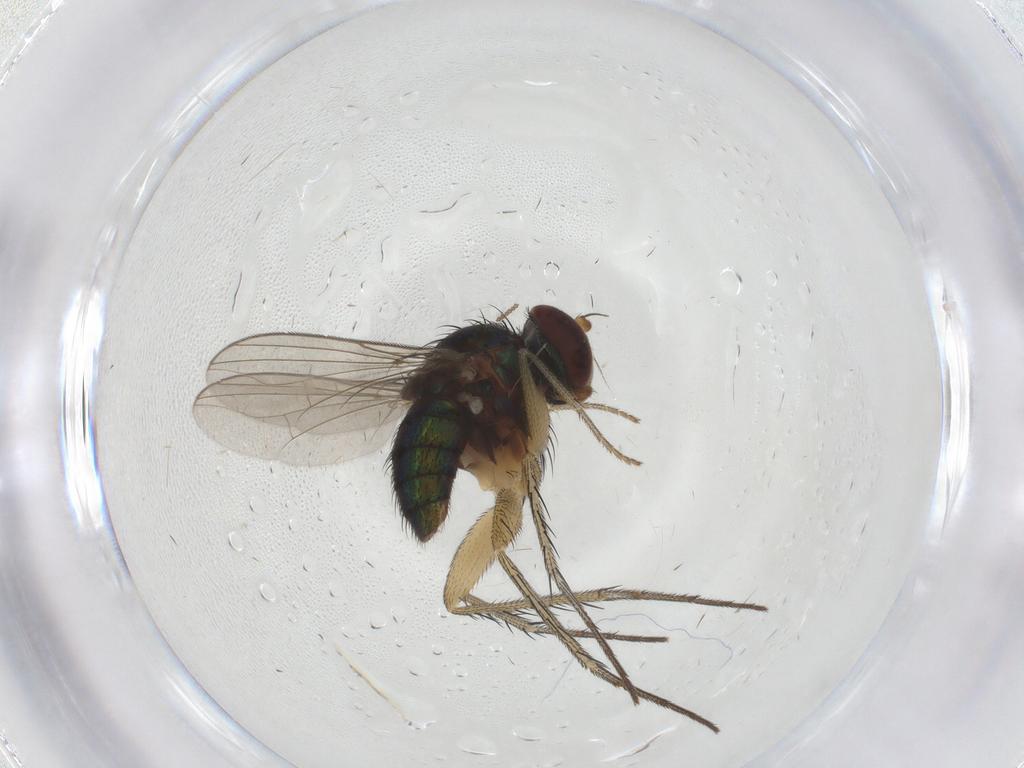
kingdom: Animalia
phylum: Arthropoda
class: Insecta
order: Diptera
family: Dolichopodidae
